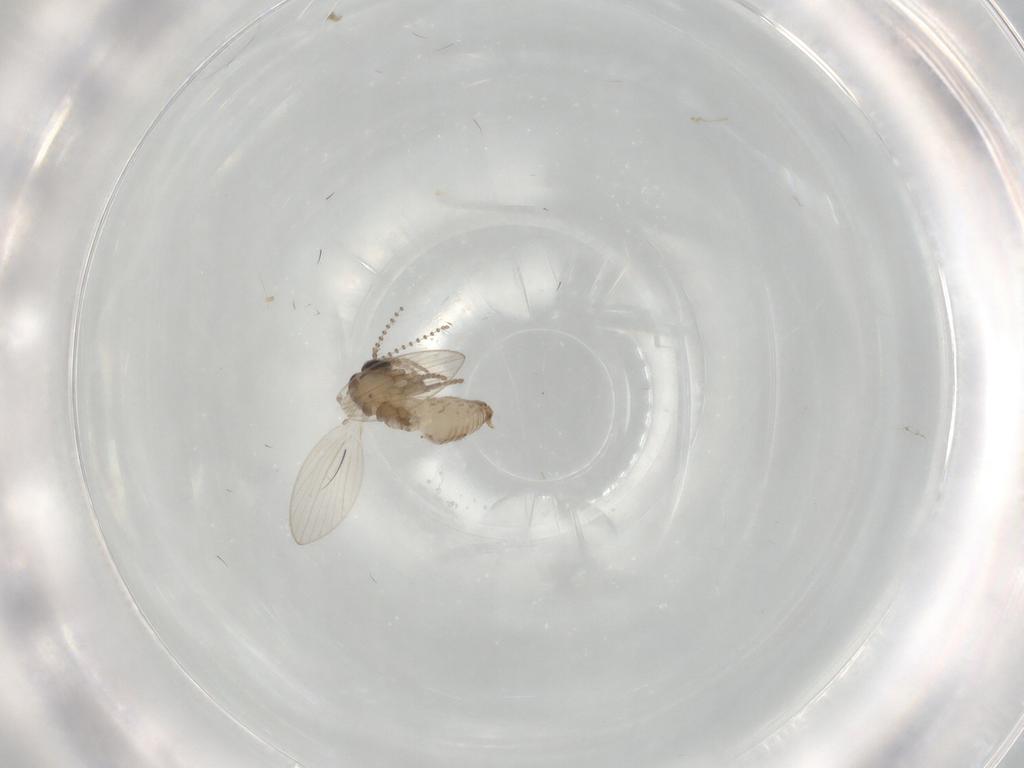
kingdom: Animalia
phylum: Arthropoda
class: Insecta
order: Diptera
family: Psychodidae
